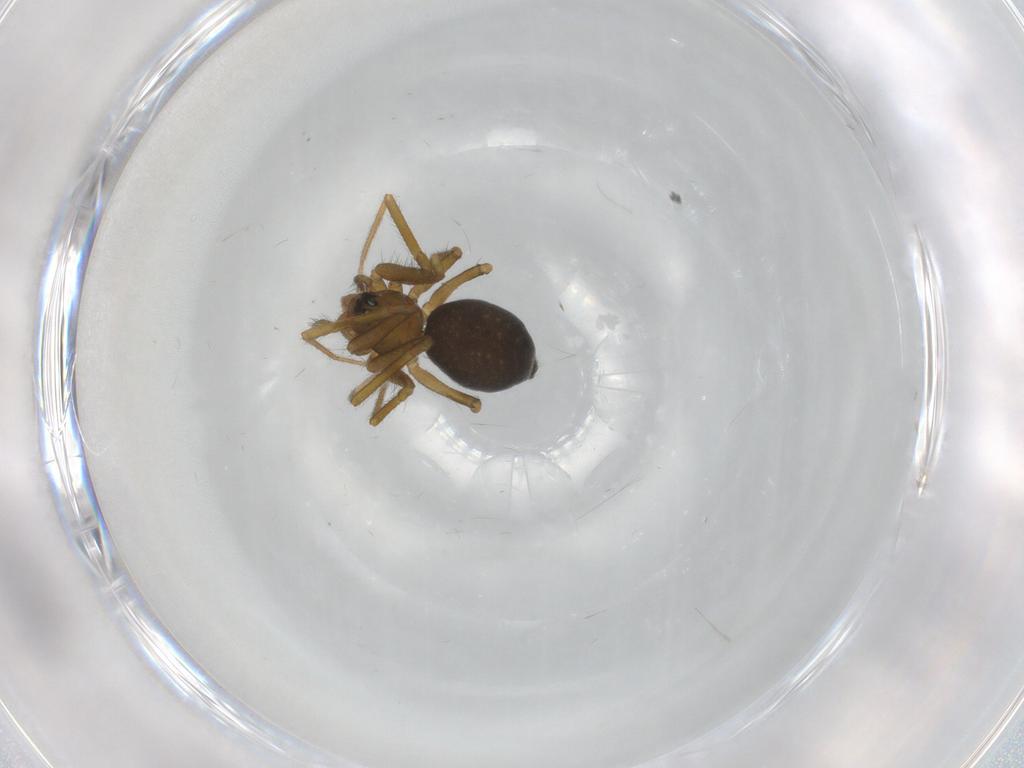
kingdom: Animalia
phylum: Arthropoda
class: Arachnida
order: Araneae
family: Linyphiidae
